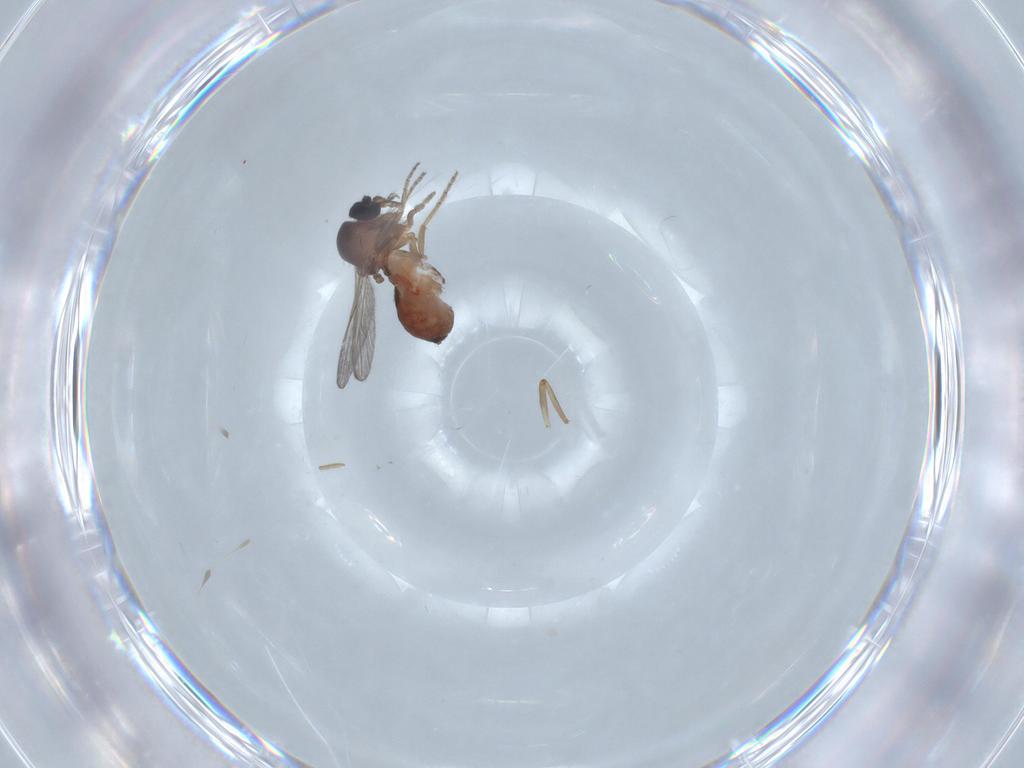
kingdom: Animalia
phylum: Arthropoda
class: Insecta
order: Diptera
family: Ceratopogonidae
